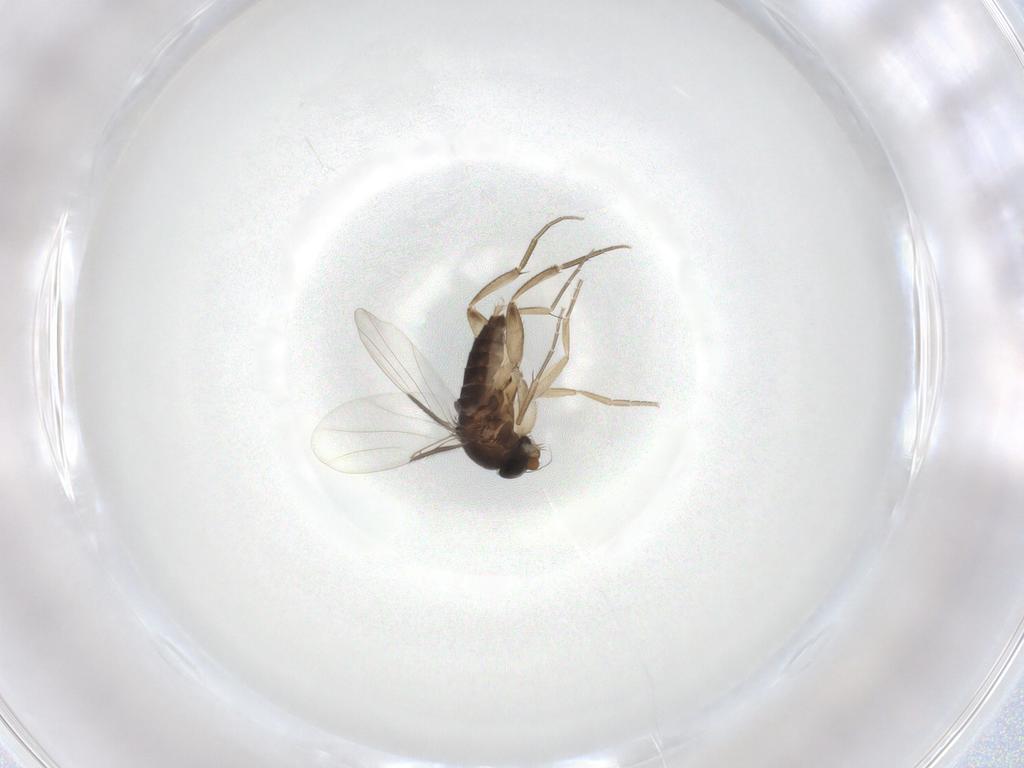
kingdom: Animalia
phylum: Arthropoda
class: Insecta
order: Diptera
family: Phoridae
